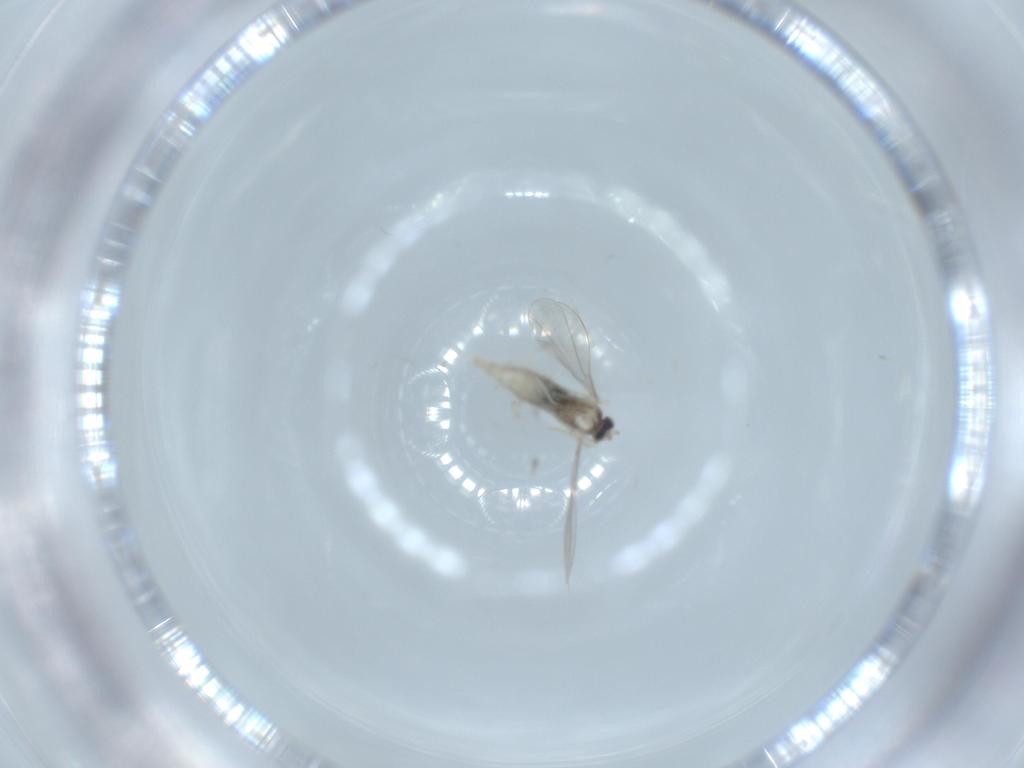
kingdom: Animalia
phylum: Arthropoda
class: Insecta
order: Diptera
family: Cecidomyiidae
